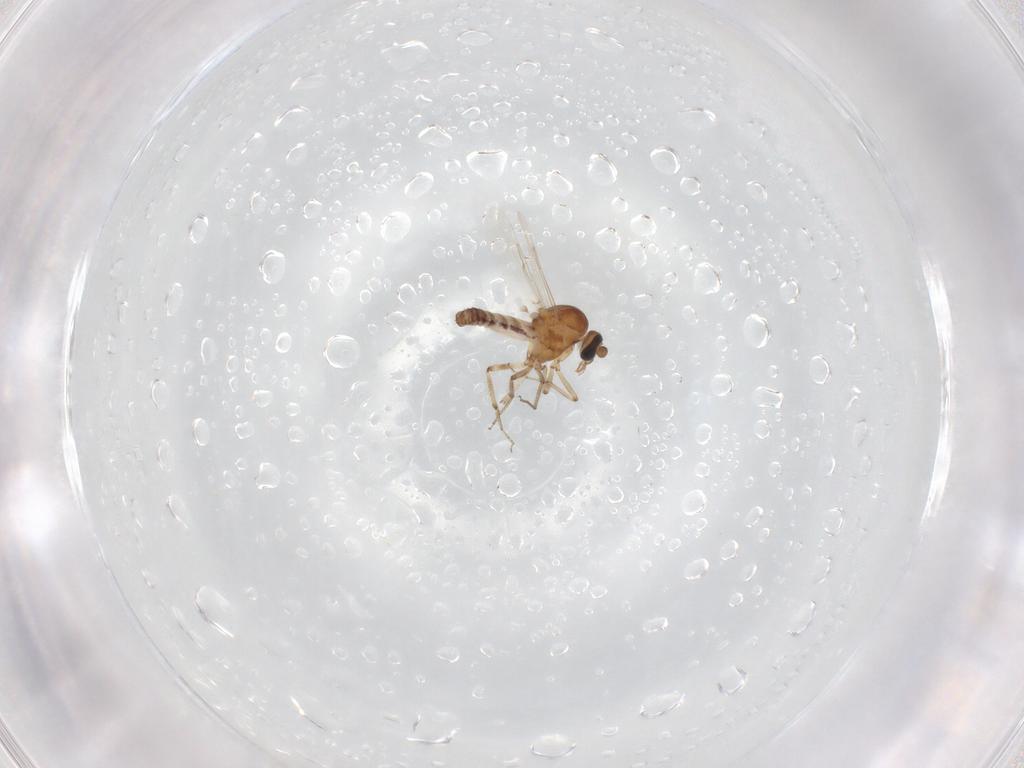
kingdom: Animalia
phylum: Arthropoda
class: Insecta
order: Diptera
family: Ceratopogonidae
